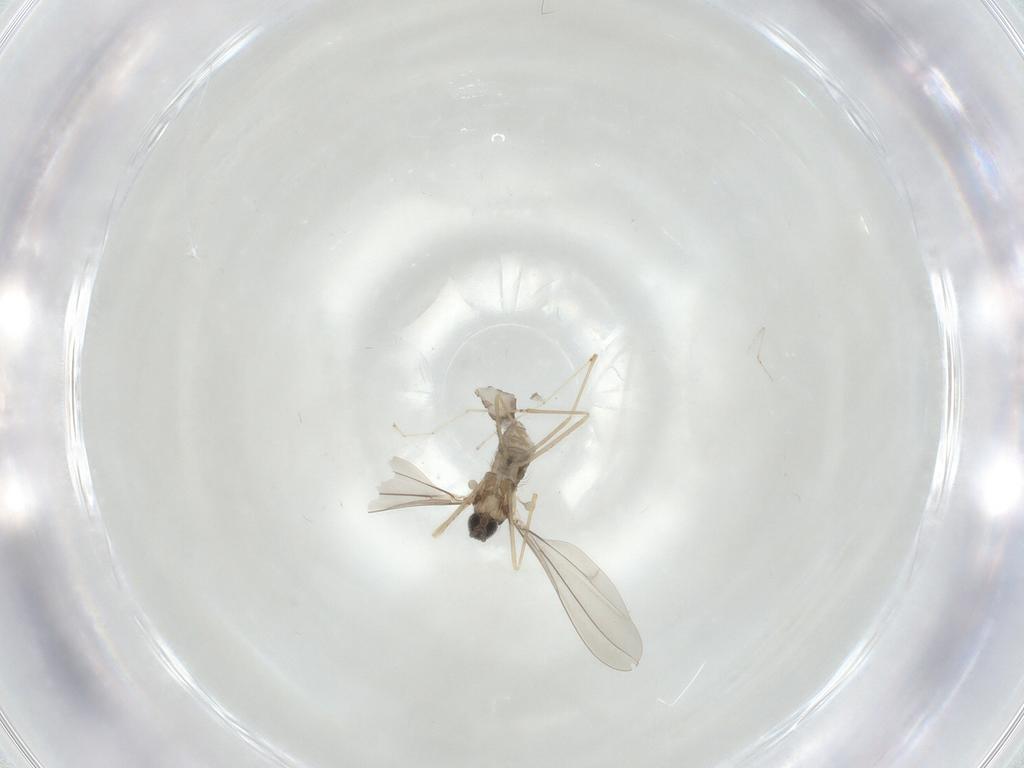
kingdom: Animalia
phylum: Arthropoda
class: Insecta
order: Diptera
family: Cecidomyiidae
